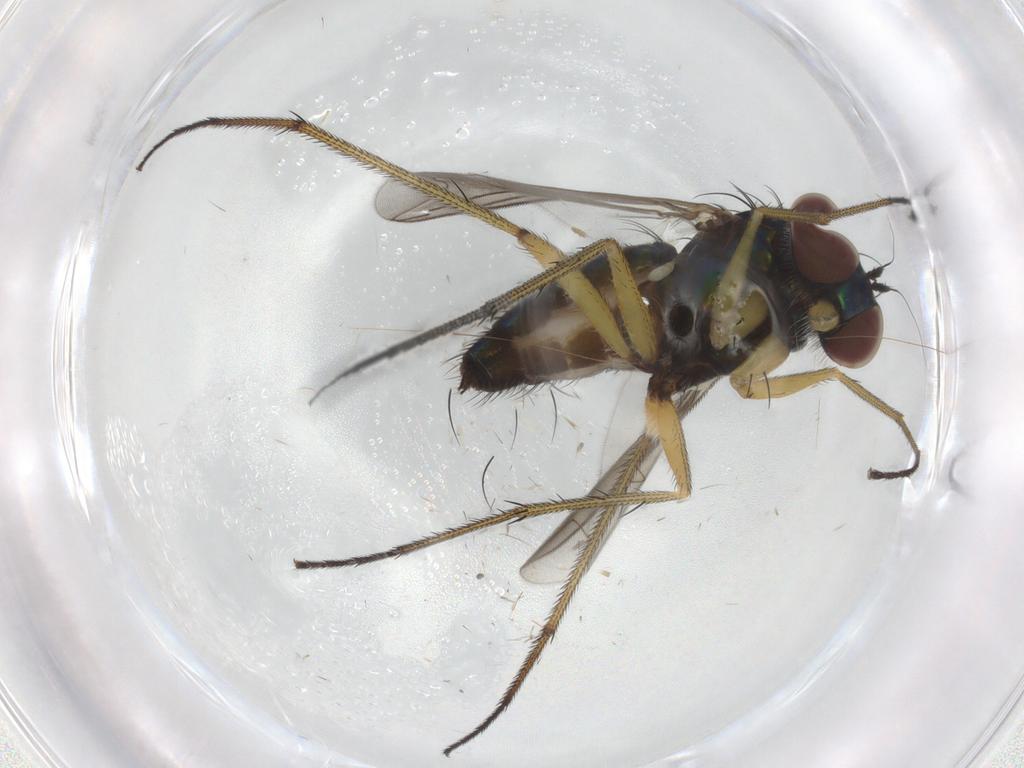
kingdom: Animalia
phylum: Arthropoda
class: Insecta
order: Diptera
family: Dolichopodidae
